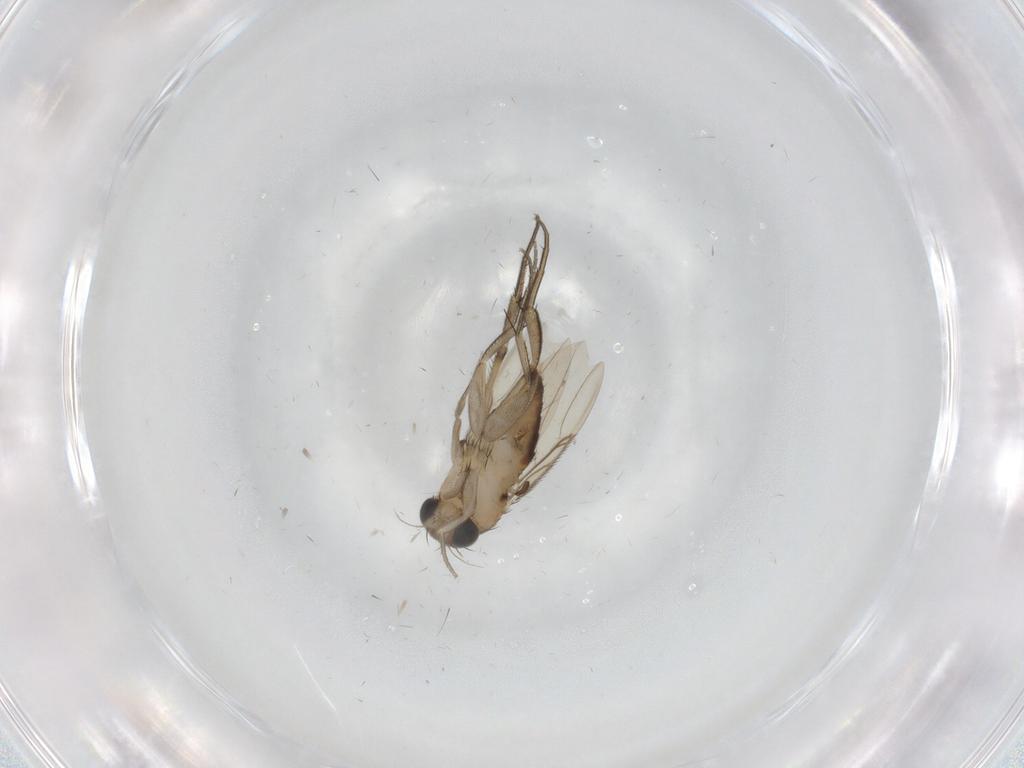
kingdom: Animalia
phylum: Arthropoda
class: Insecta
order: Diptera
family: Phoridae
